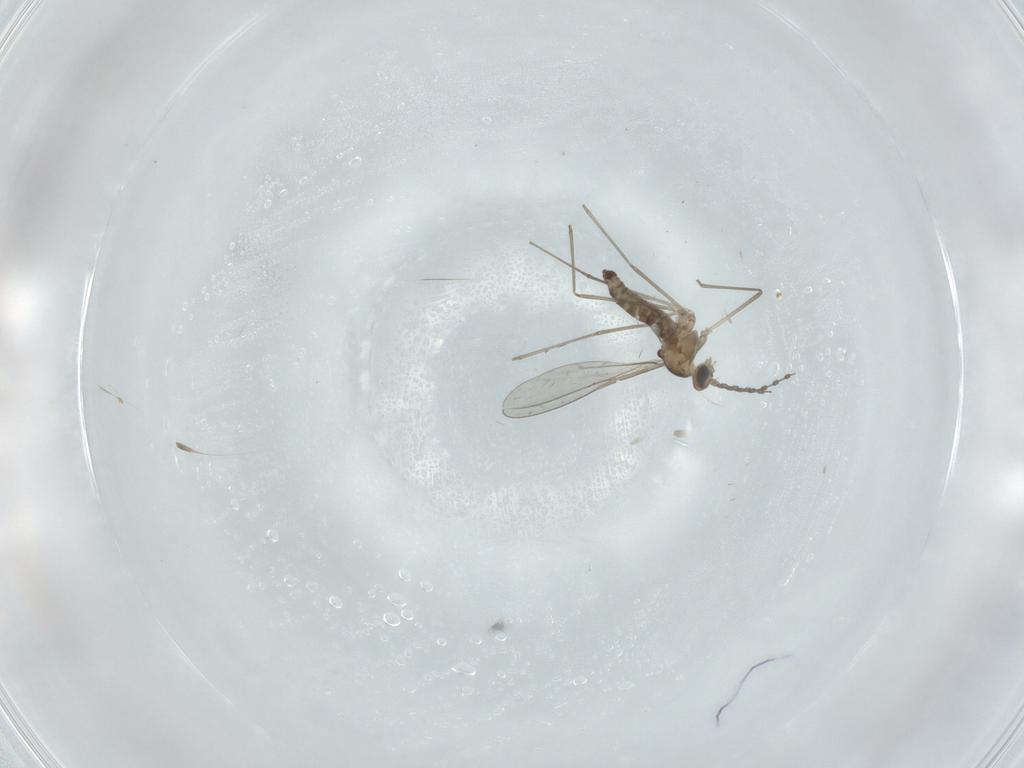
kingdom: Animalia
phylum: Arthropoda
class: Insecta
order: Diptera
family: Cecidomyiidae
